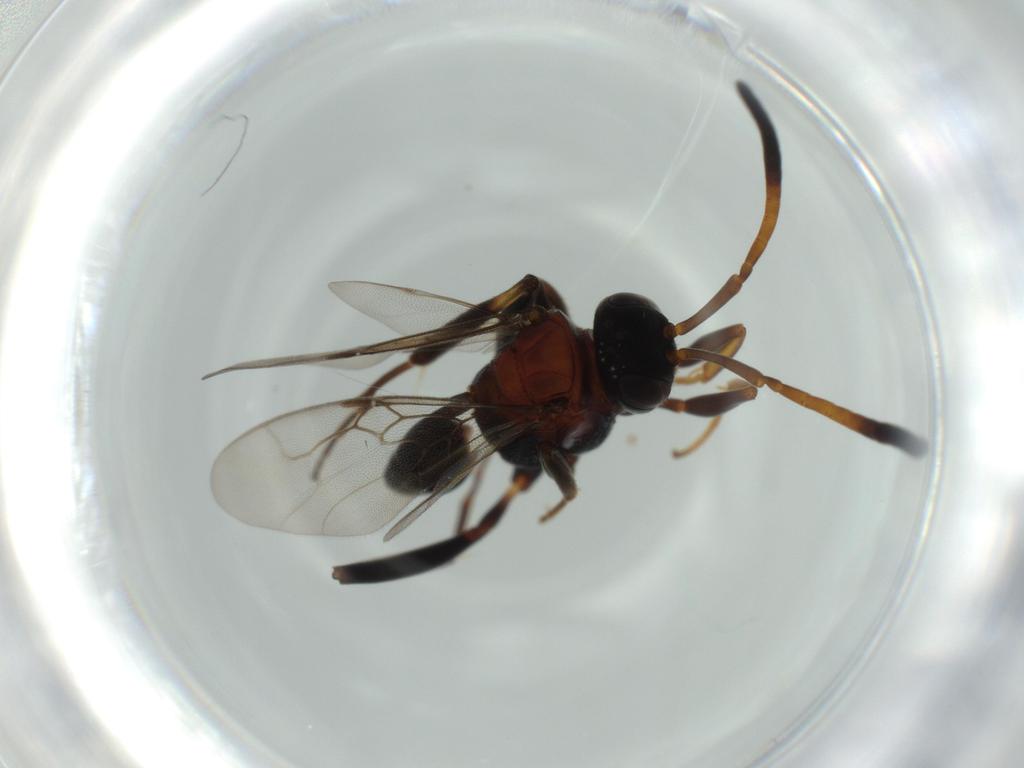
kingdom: Animalia
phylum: Arthropoda
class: Insecta
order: Hymenoptera
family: Evaniidae
